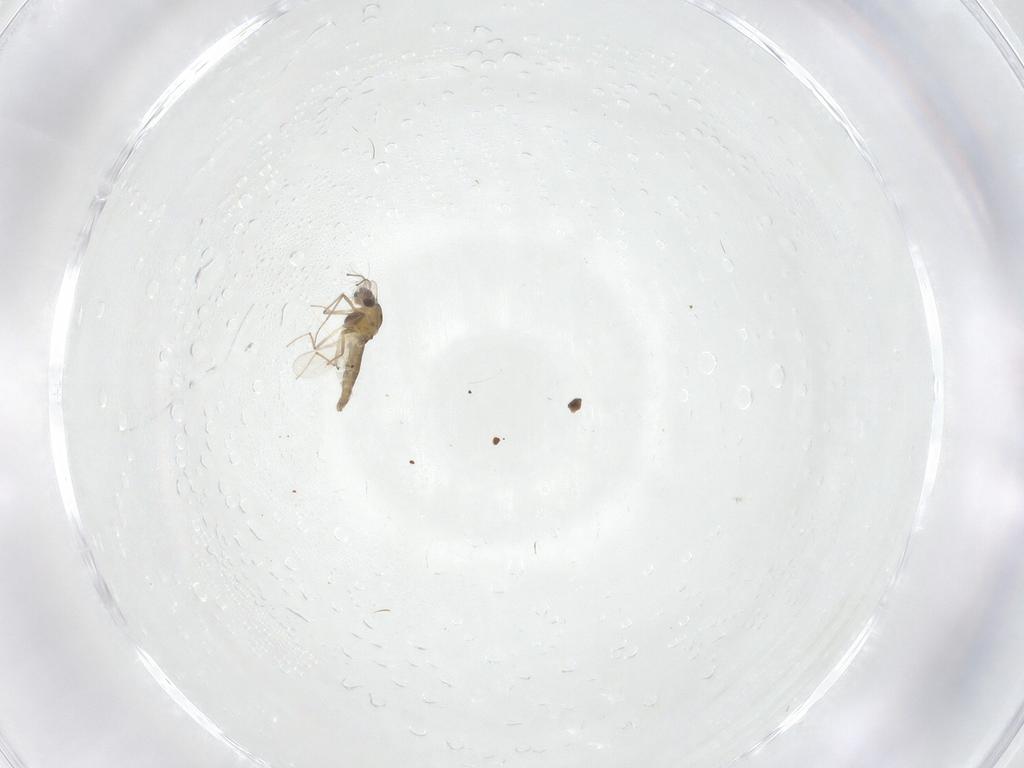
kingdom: Animalia
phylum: Arthropoda
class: Insecta
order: Diptera
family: Chironomidae
